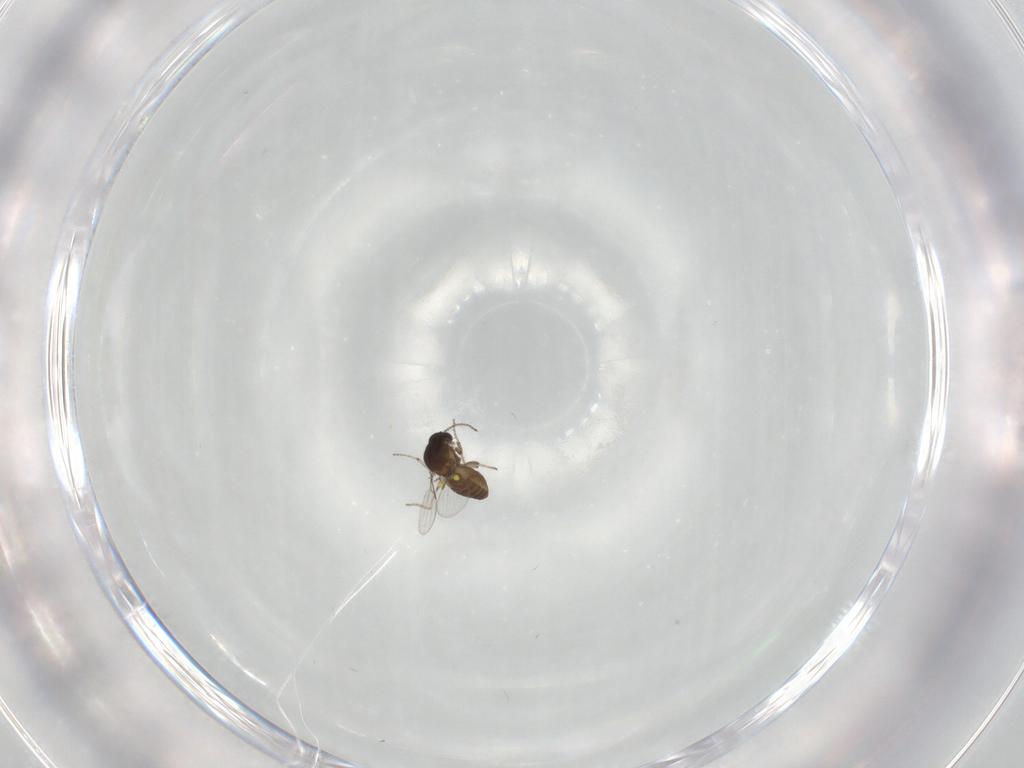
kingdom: Animalia
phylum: Arthropoda
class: Insecta
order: Diptera
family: Ceratopogonidae
